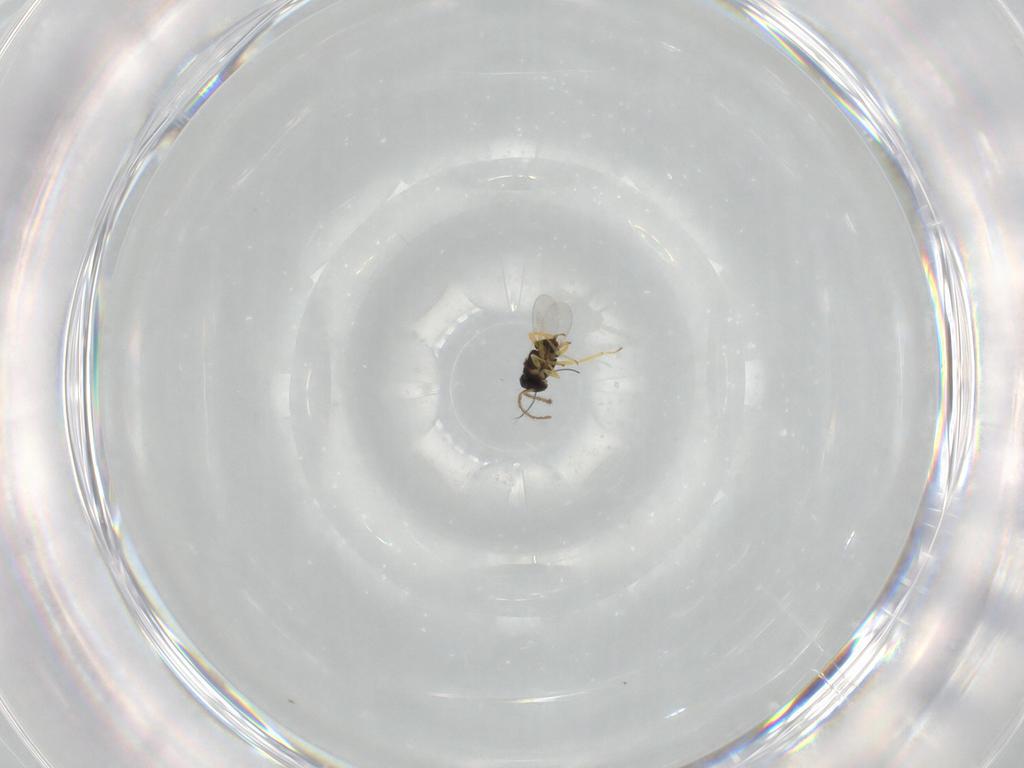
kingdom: Animalia
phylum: Arthropoda
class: Insecta
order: Hymenoptera
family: Encyrtidae
